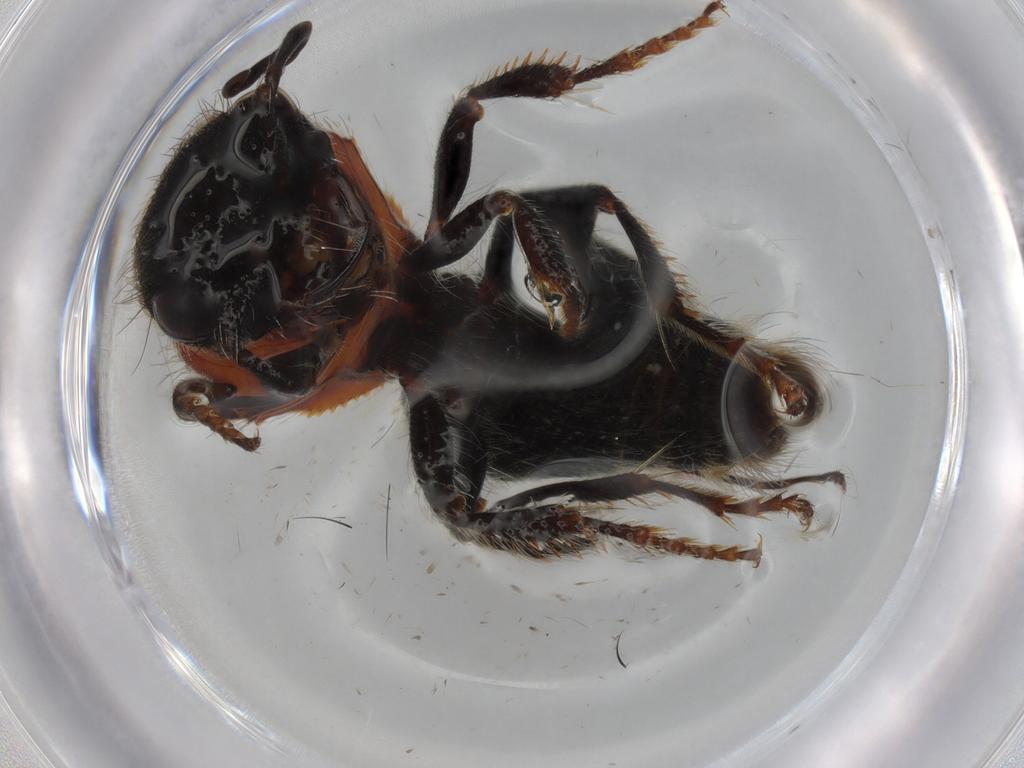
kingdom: Animalia
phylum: Arthropoda
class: Insecta
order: Hymenoptera
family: Mutillidae
